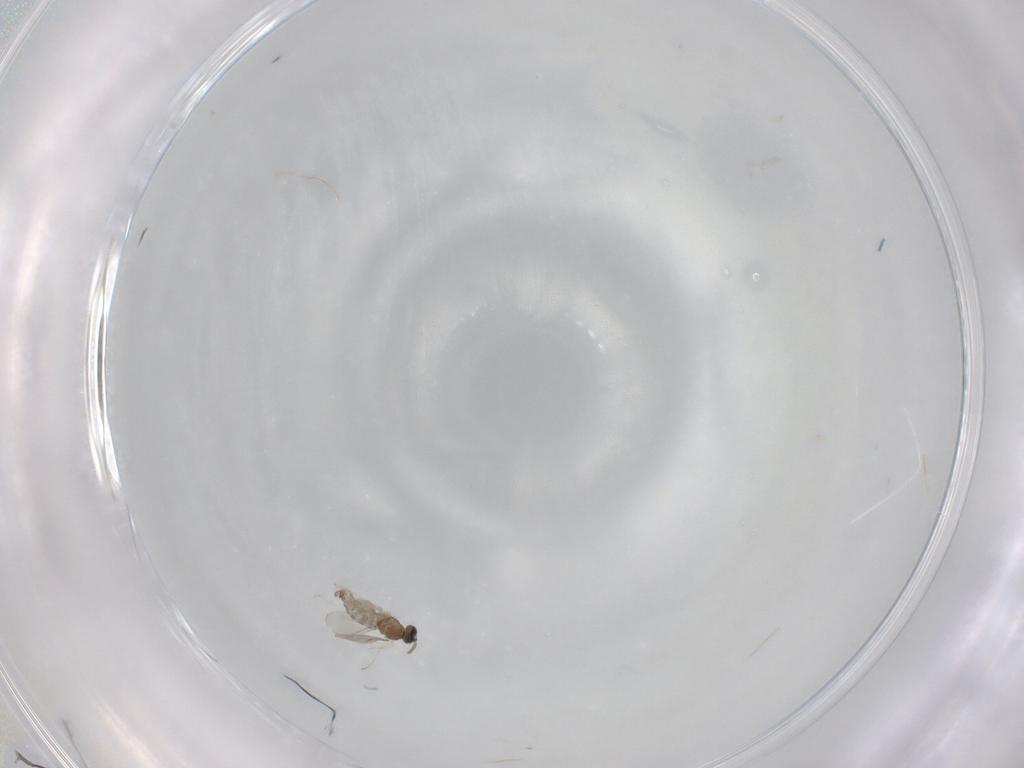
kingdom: Animalia
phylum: Arthropoda
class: Insecta
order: Diptera
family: Cecidomyiidae
